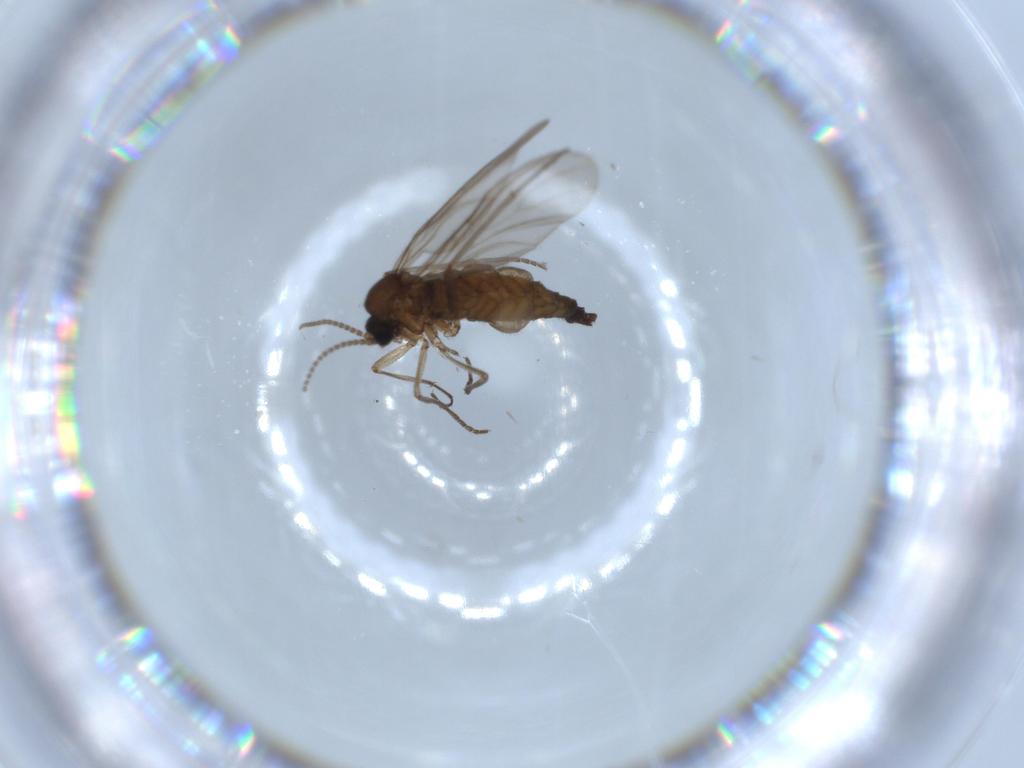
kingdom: Animalia
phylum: Arthropoda
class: Insecta
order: Diptera
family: Sciaridae
